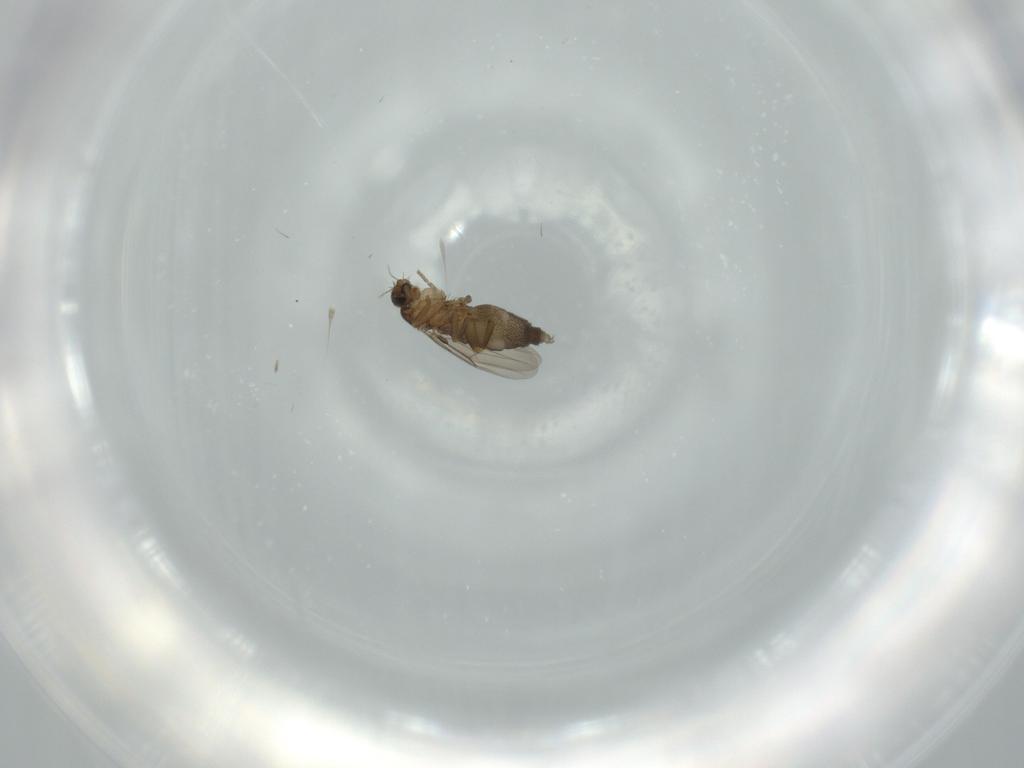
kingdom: Animalia
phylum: Arthropoda
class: Insecta
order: Diptera
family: Phoridae
